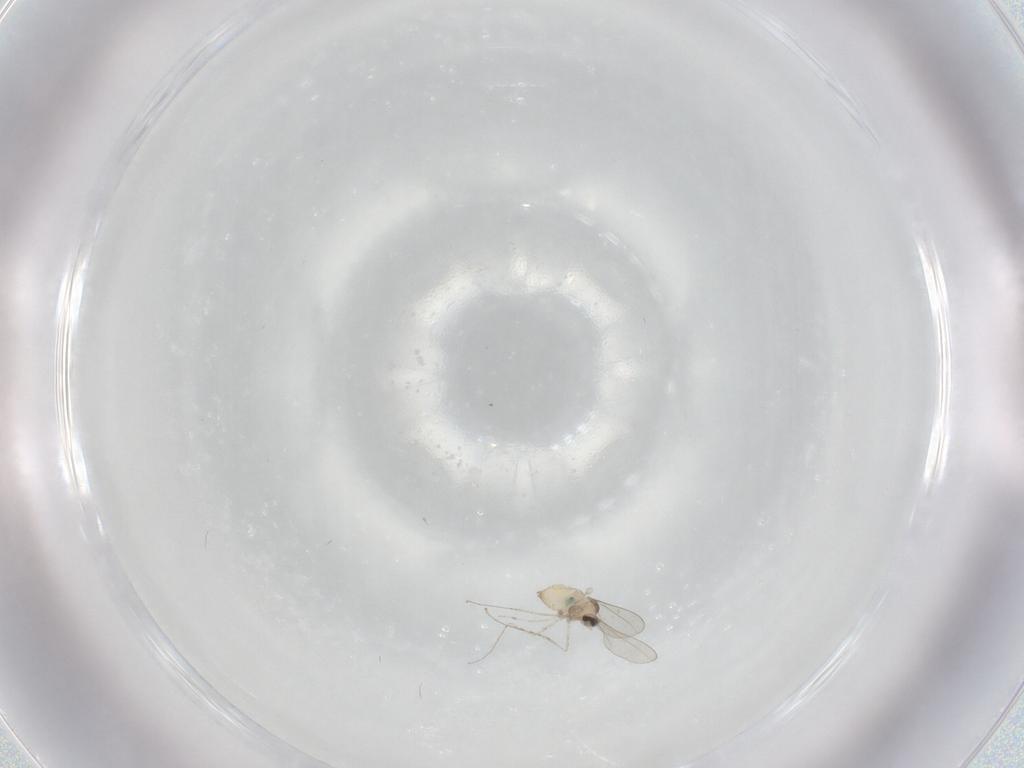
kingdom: Animalia
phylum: Arthropoda
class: Insecta
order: Diptera
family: Cecidomyiidae
